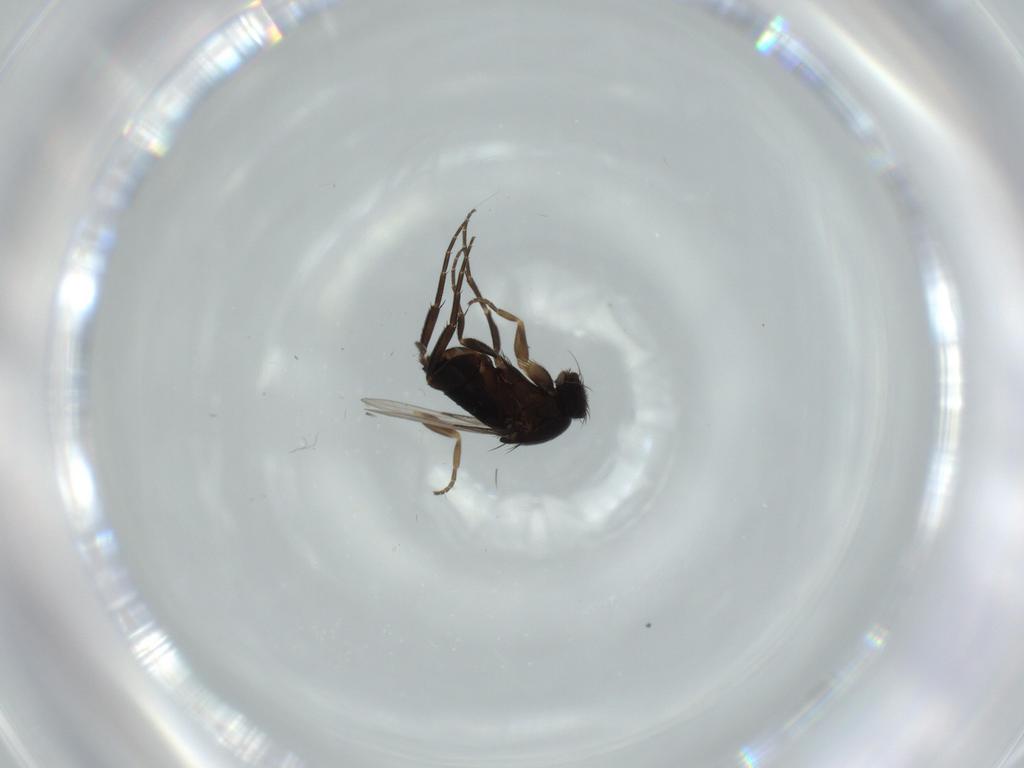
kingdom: Animalia
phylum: Arthropoda
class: Insecta
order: Diptera
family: Phoridae
